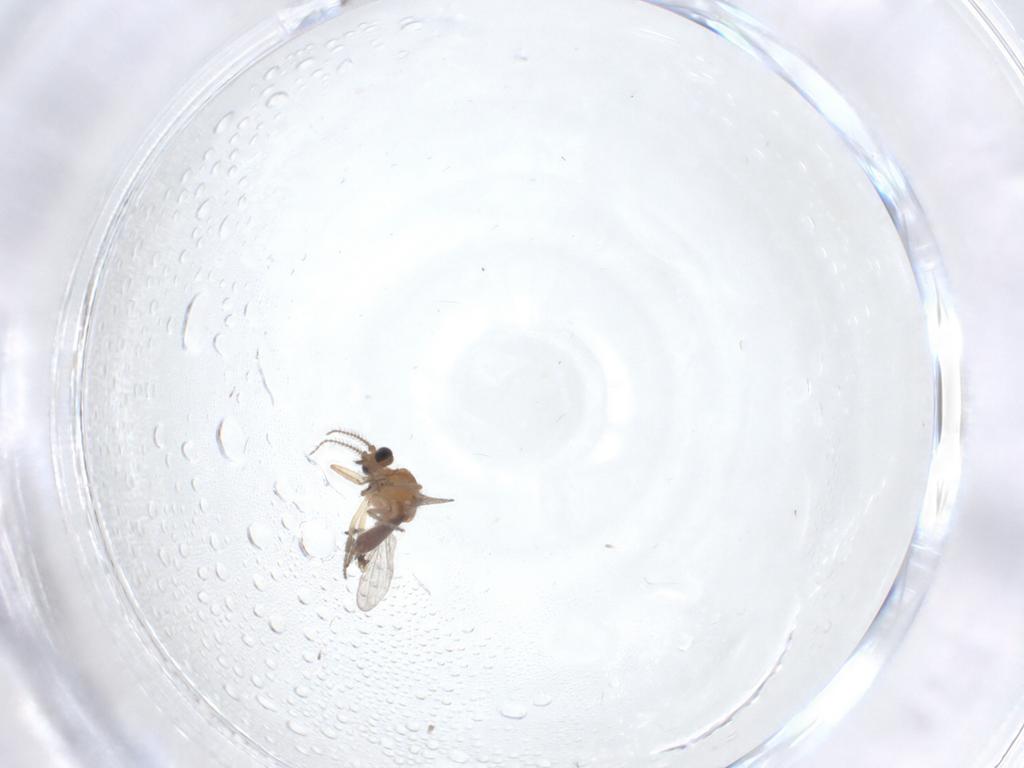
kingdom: Animalia
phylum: Arthropoda
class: Insecta
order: Diptera
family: Ceratopogonidae
